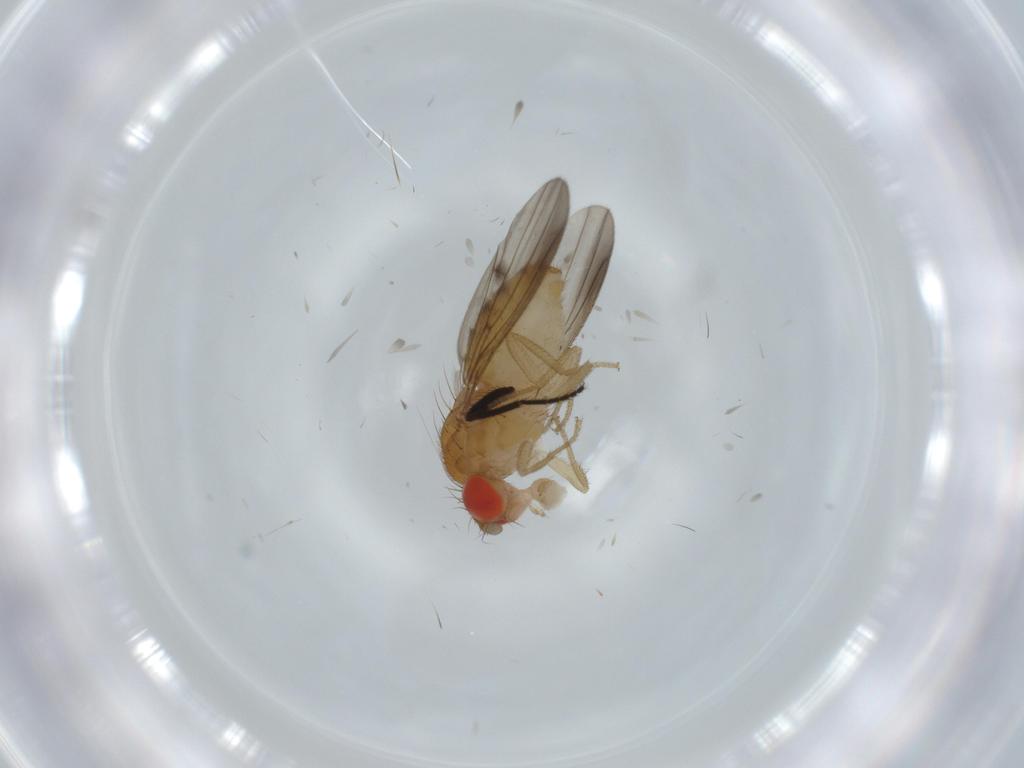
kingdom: Animalia
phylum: Arthropoda
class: Insecta
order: Diptera
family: Drosophilidae
